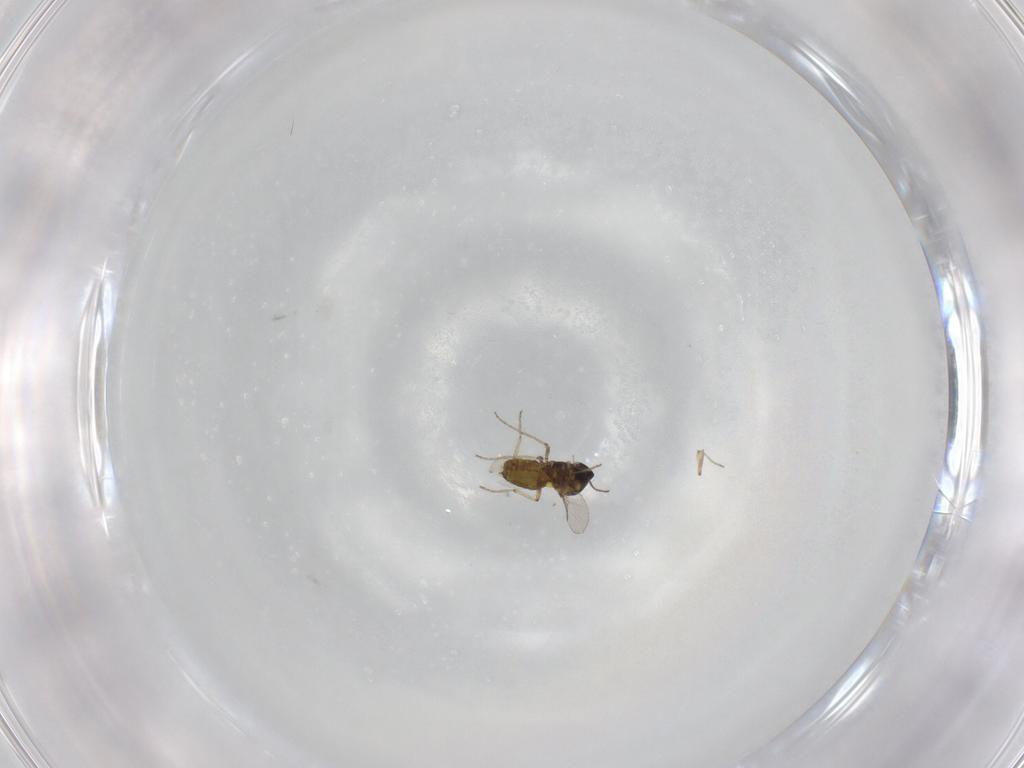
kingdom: Animalia
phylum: Arthropoda
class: Insecta
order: Diptera
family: Ceratopogonidae
